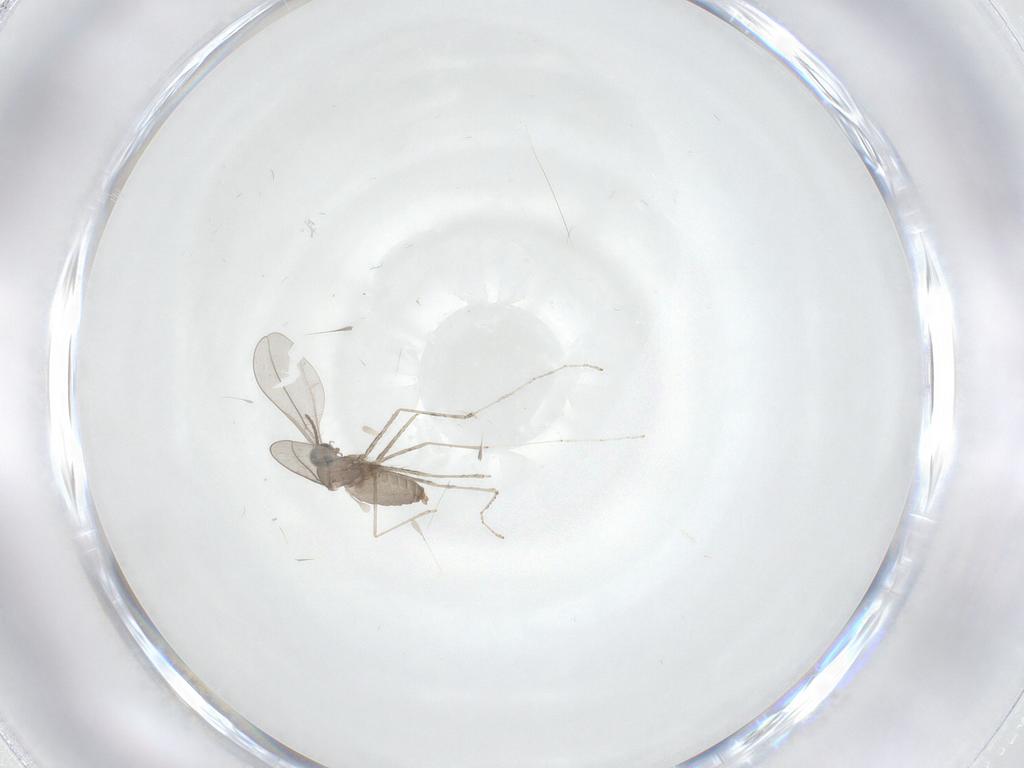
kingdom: Animalia
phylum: Arthropoda
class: Insecta
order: Diptera
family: Cecidomyiidae
